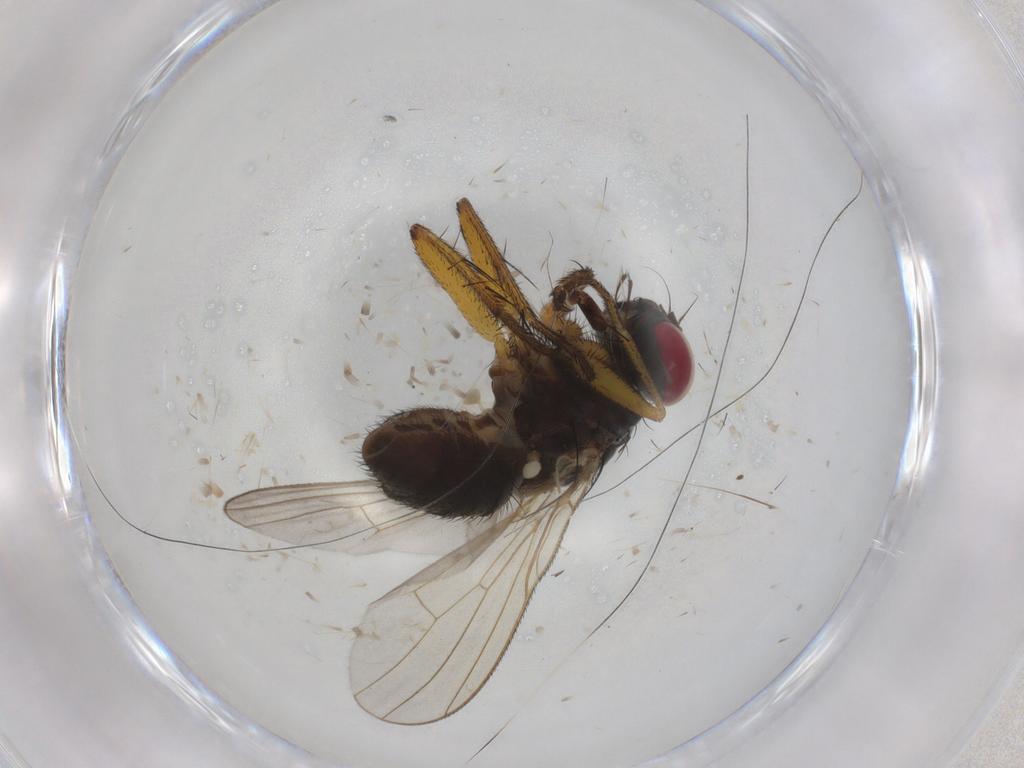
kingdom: Animalia
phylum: Arthropoda
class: Insecta
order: Diptera
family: Muscidae
